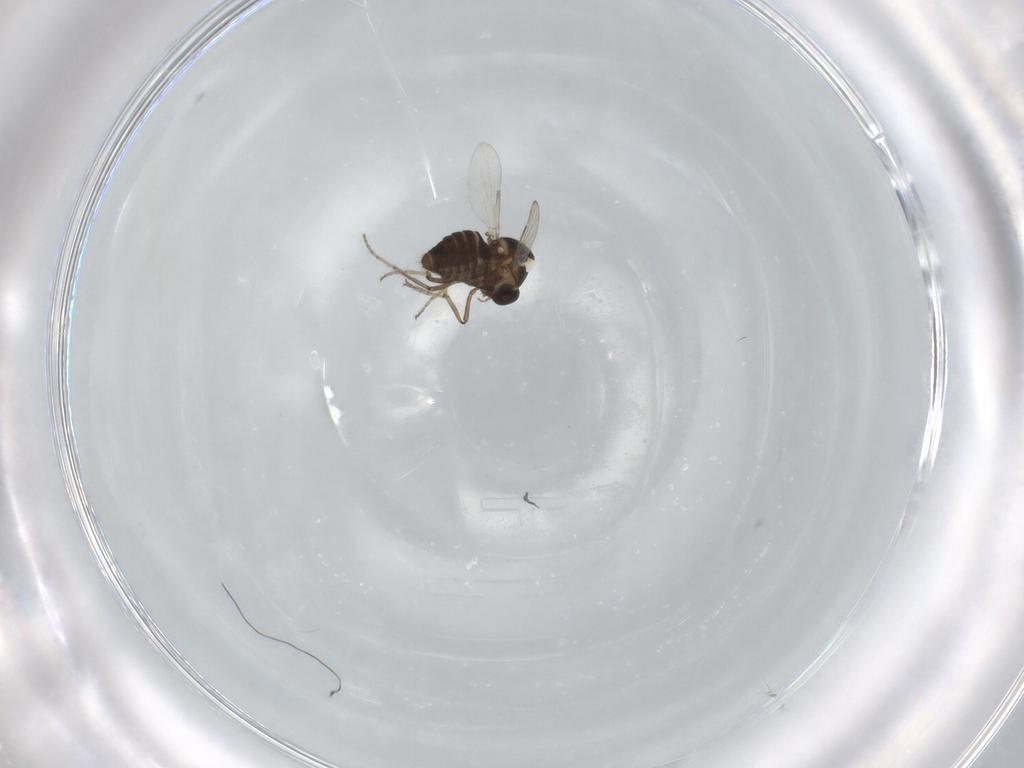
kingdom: Animalia
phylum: Arthropoda
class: Insecta
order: Diptera
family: Ceratopogonidae
